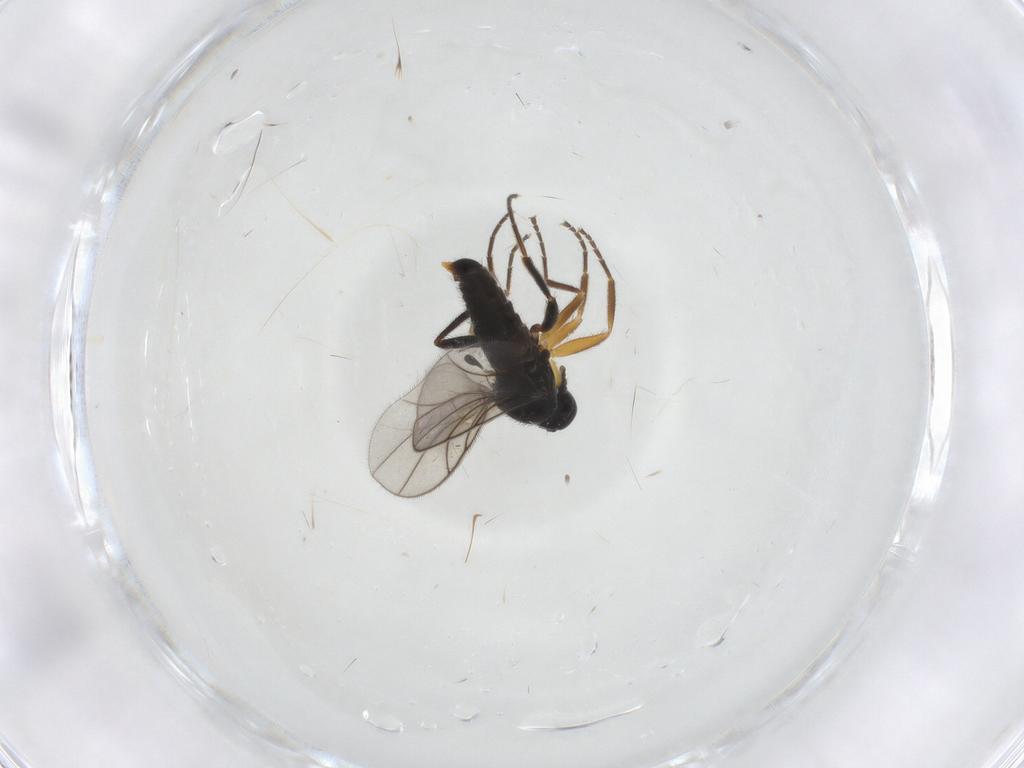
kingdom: Animalia
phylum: Arthropoda
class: Insecta
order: Diptera
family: Hybotidae
